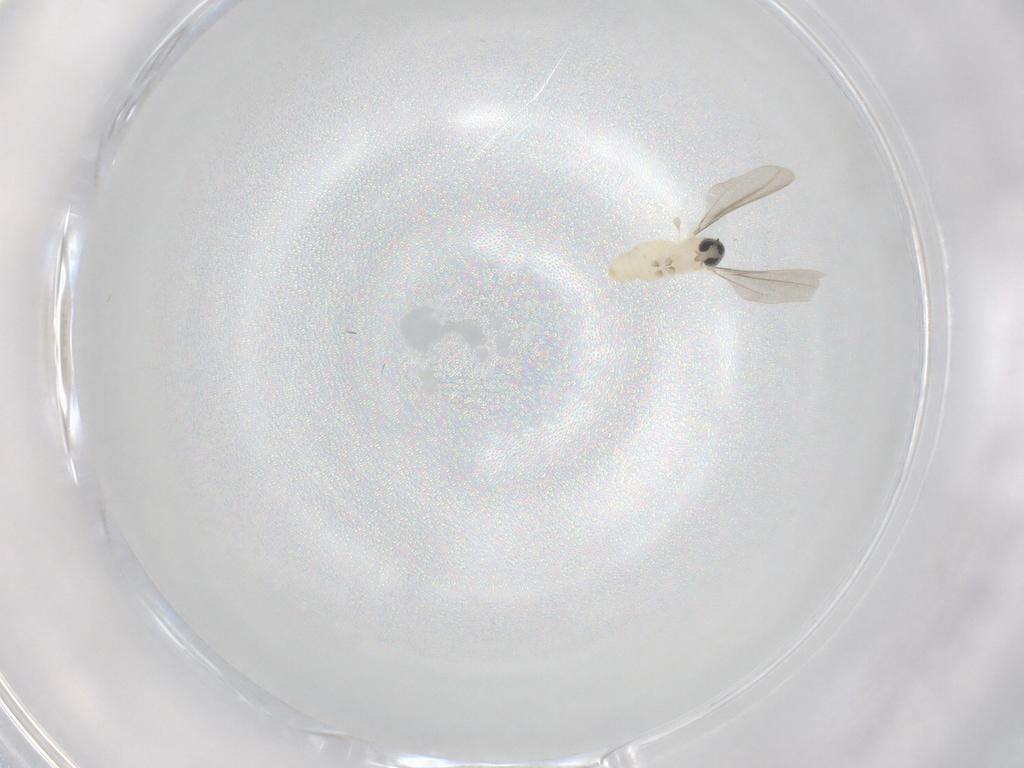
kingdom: Animalia
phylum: Arthropoda
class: Insecta
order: Diptera
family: Cecidomyiidae
